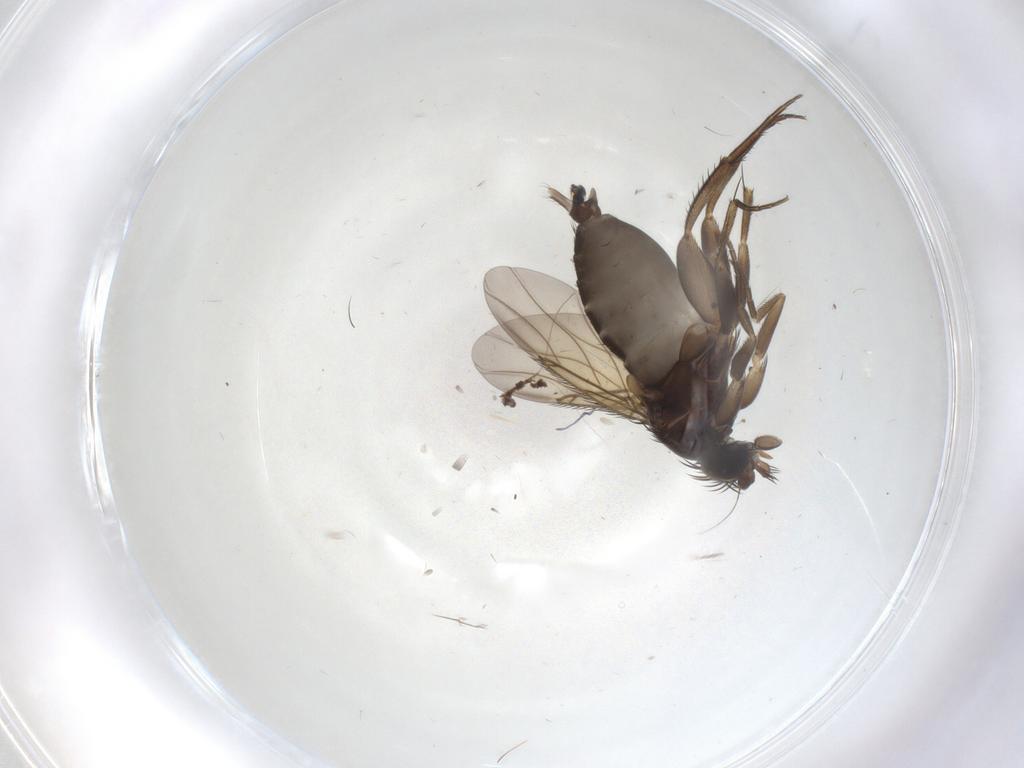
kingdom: Animalia
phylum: Arthropoda
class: Insecta
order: Diptera
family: Phoridae
